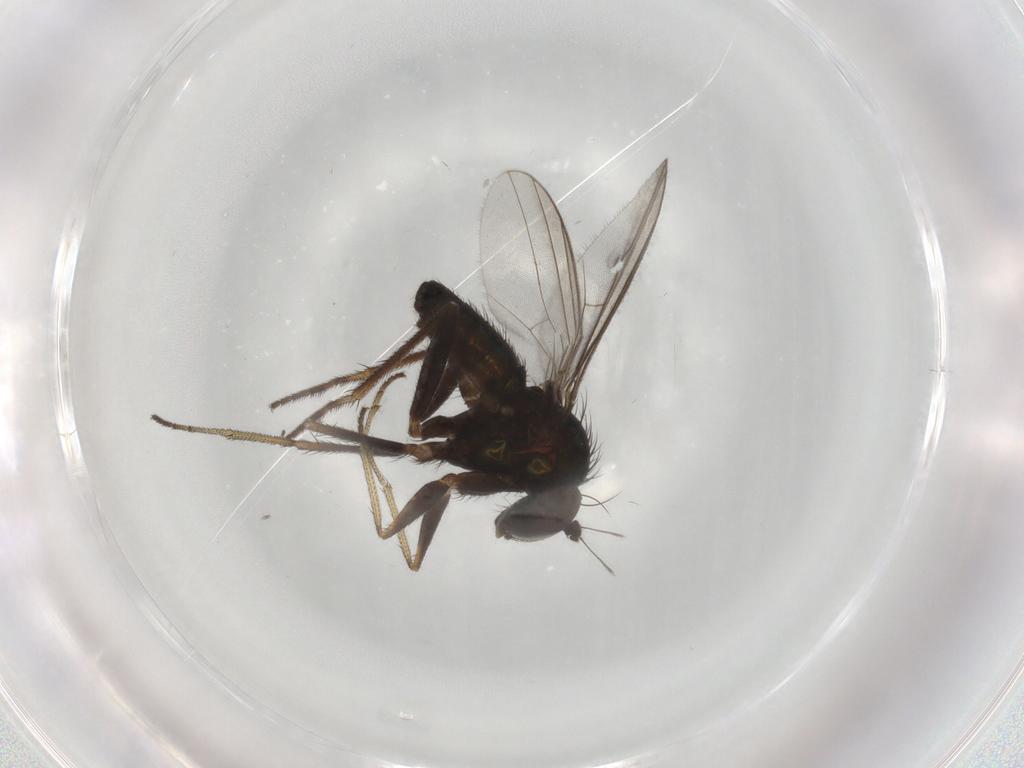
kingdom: Animalia
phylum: Arthropoda
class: Insecta
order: Diptera
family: Dolichopodidae
